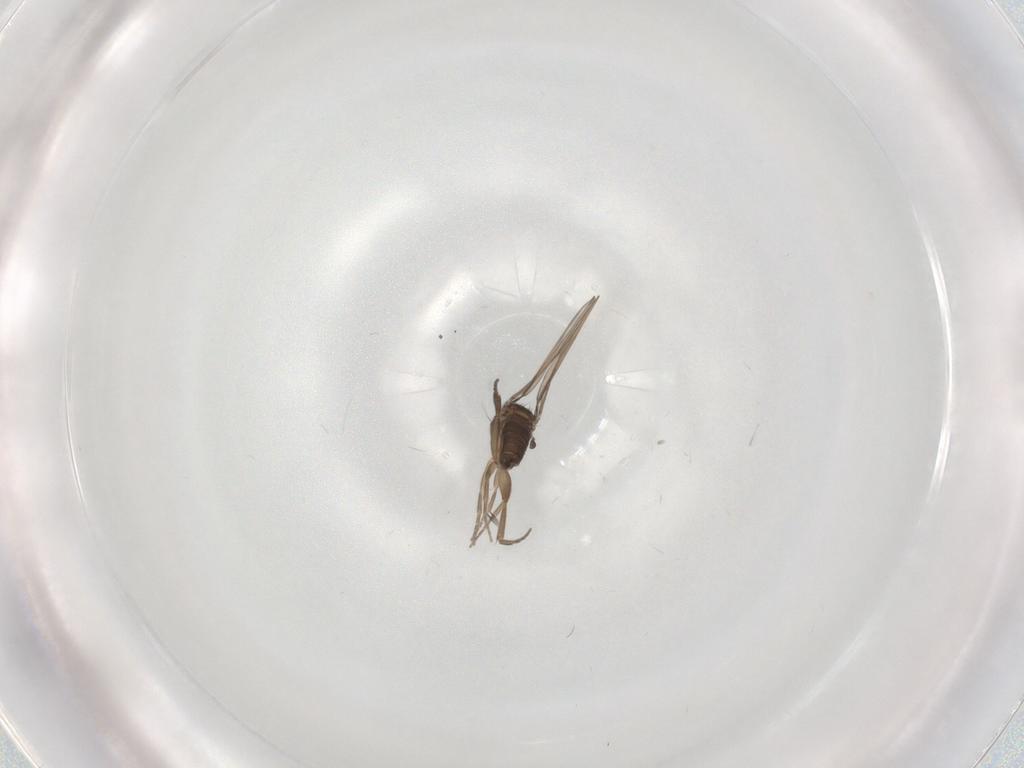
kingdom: Animalia
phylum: Arthropoda
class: Insecta
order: Diptera
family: Phoridae
